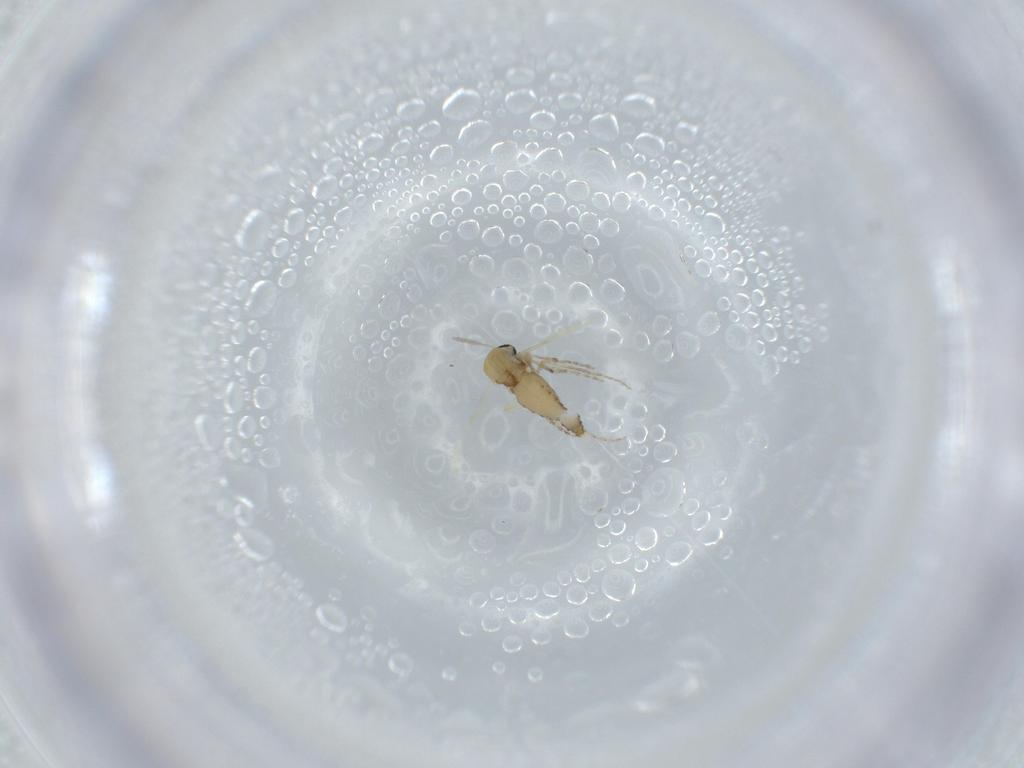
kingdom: Animalia
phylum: Arthropoda
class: Insecta
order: Diptera
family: Ceratopogonidae
